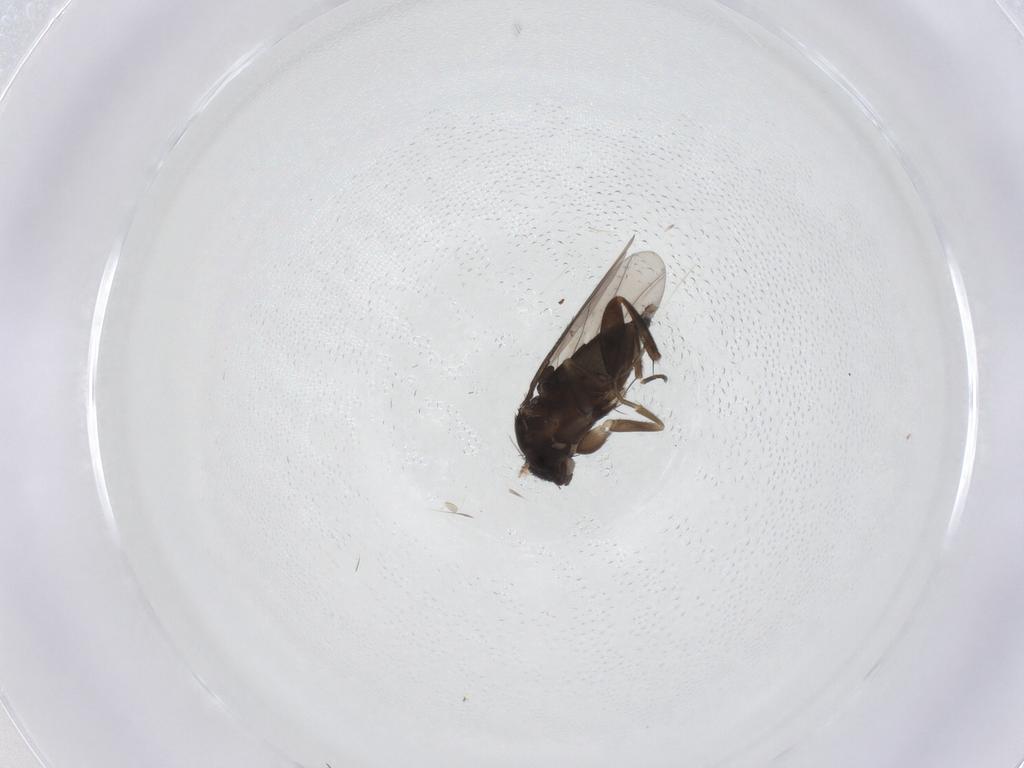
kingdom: Animalia
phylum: Arthropoda
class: Insecta
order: Diptera
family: Phoridae
